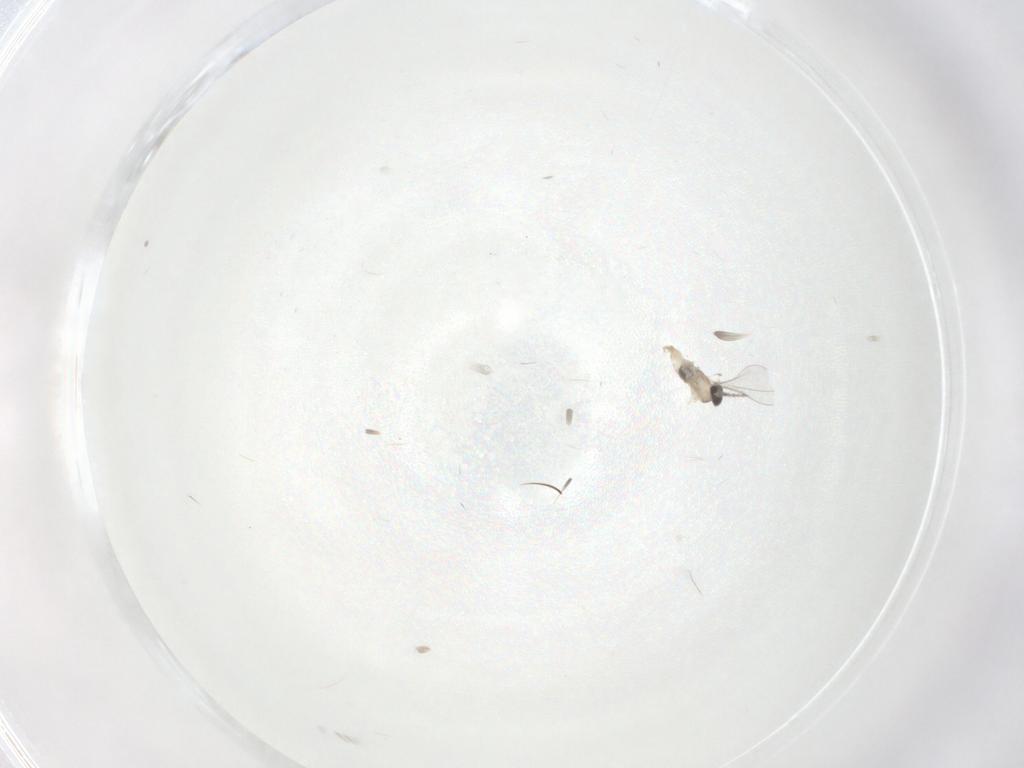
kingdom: Animalia
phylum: Arthropoda
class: Insecta
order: Diptera
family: Cecidomyiidae
